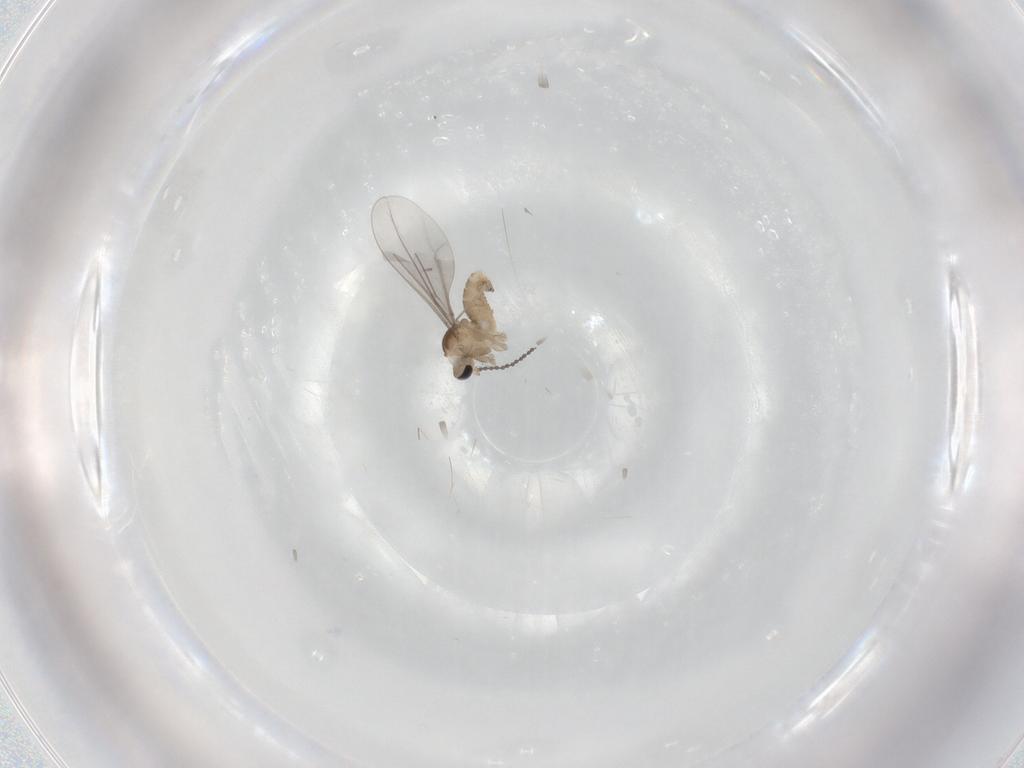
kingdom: Animalia
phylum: Arthropoda
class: Insecta
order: Diptera
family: Cecidomyiidae
